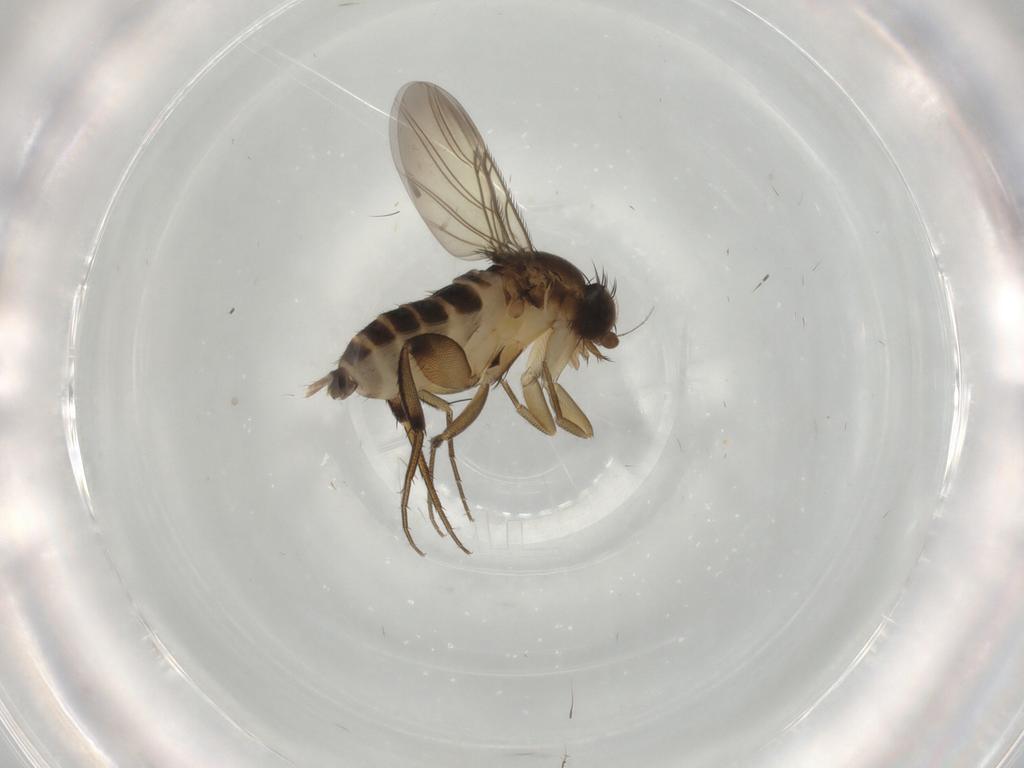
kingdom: Animalia
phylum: Arthropoda
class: Insecta
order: Diptera
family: Phoridae
